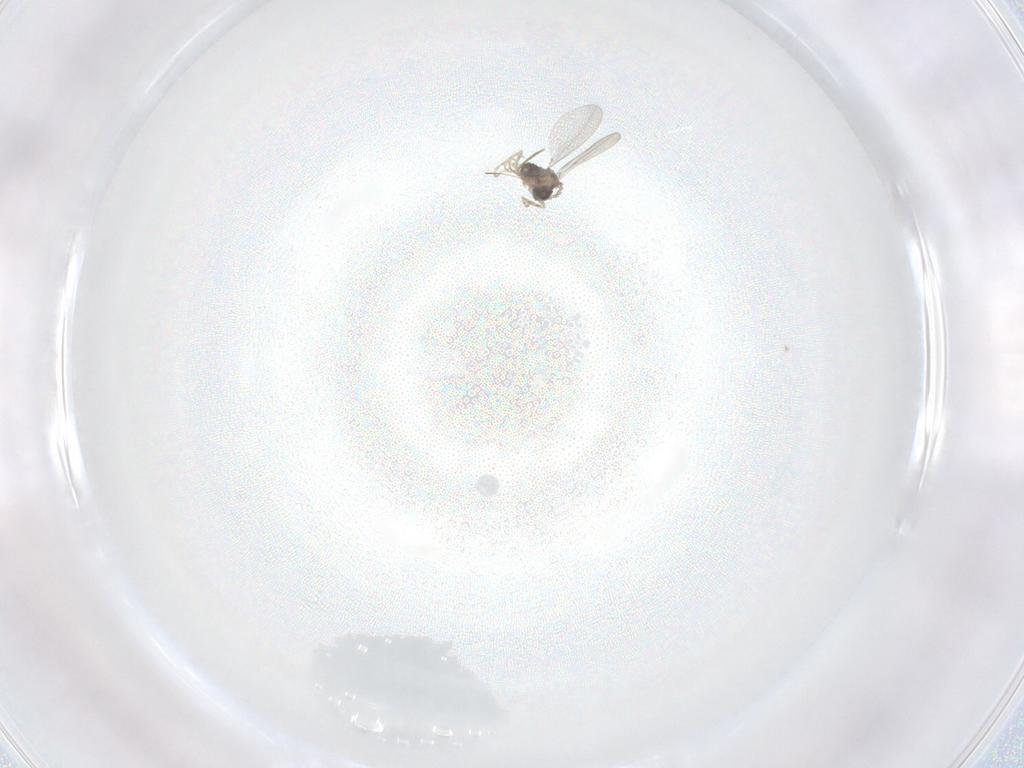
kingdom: Animalia
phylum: Arthropoda
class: Insecta
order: Diptera
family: Cecidomyiidae
